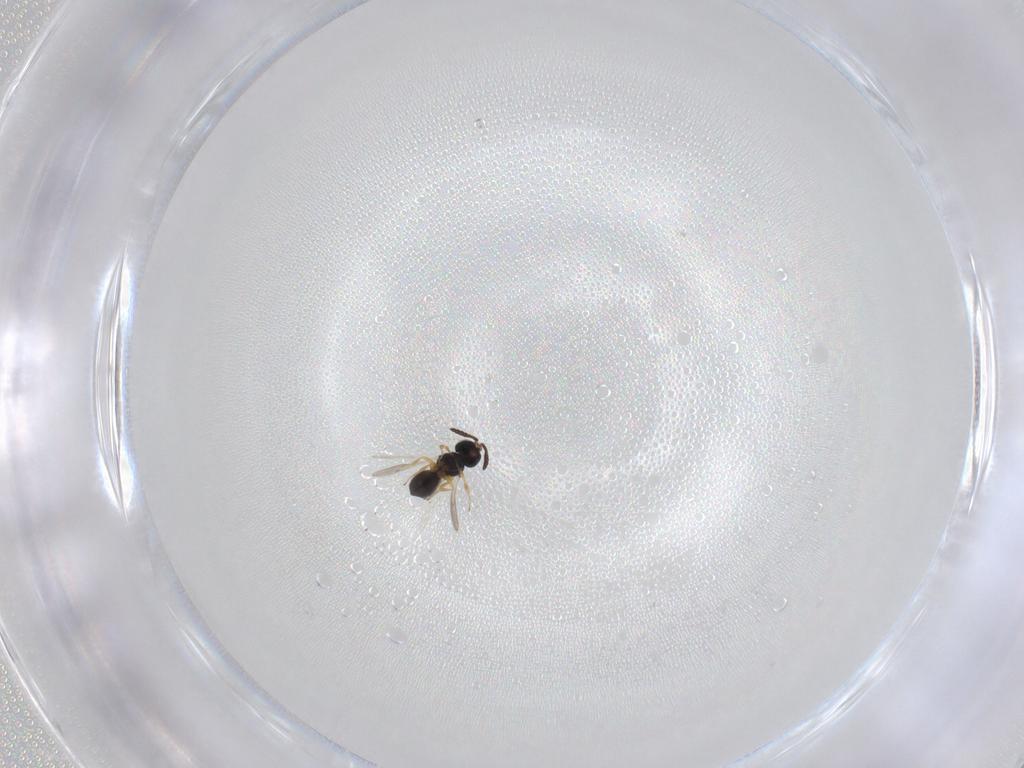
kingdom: Animalia
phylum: Arthropoda
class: Insecta
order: Hymenoptera
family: Scelionidae
